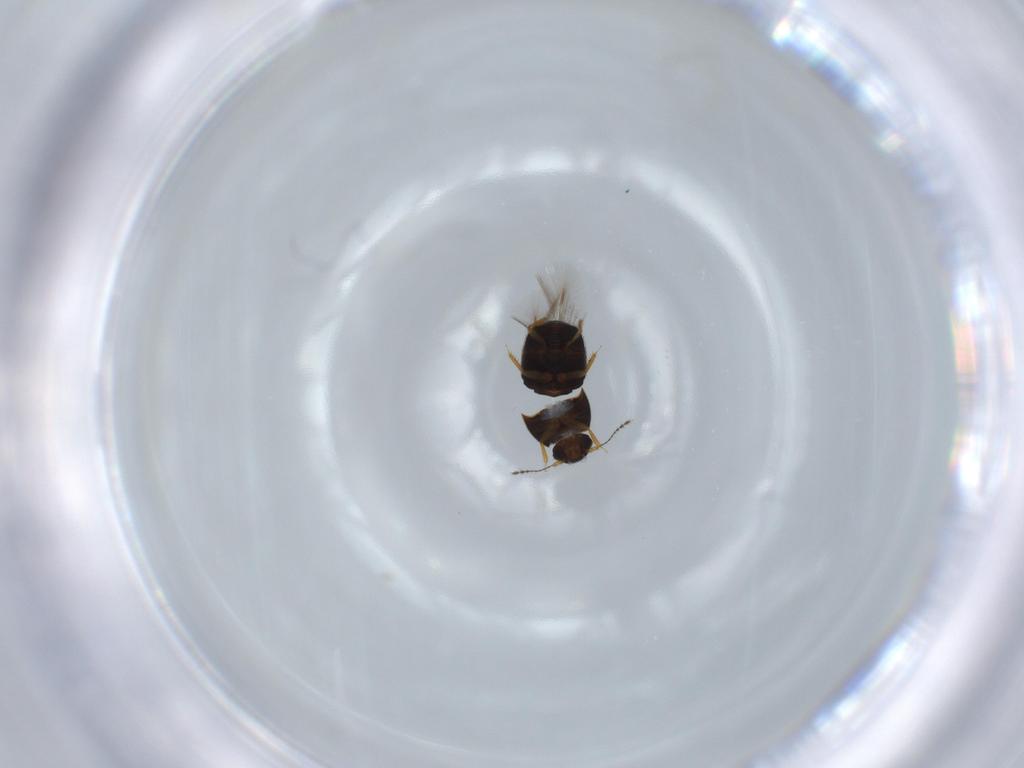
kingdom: Animalia
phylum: Arthropoda
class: Insecta
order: Coleoptera
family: Ptiliidae
